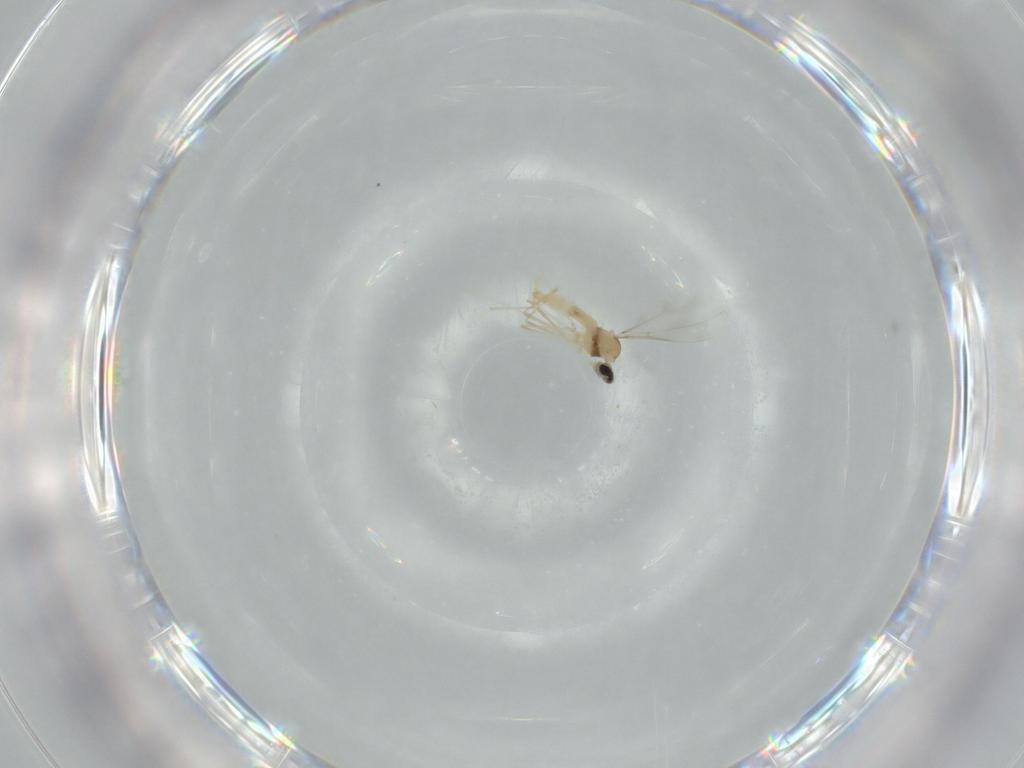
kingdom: Animalia
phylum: Arthropoda
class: Insecta
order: Diptera
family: Cecidomyiidae
